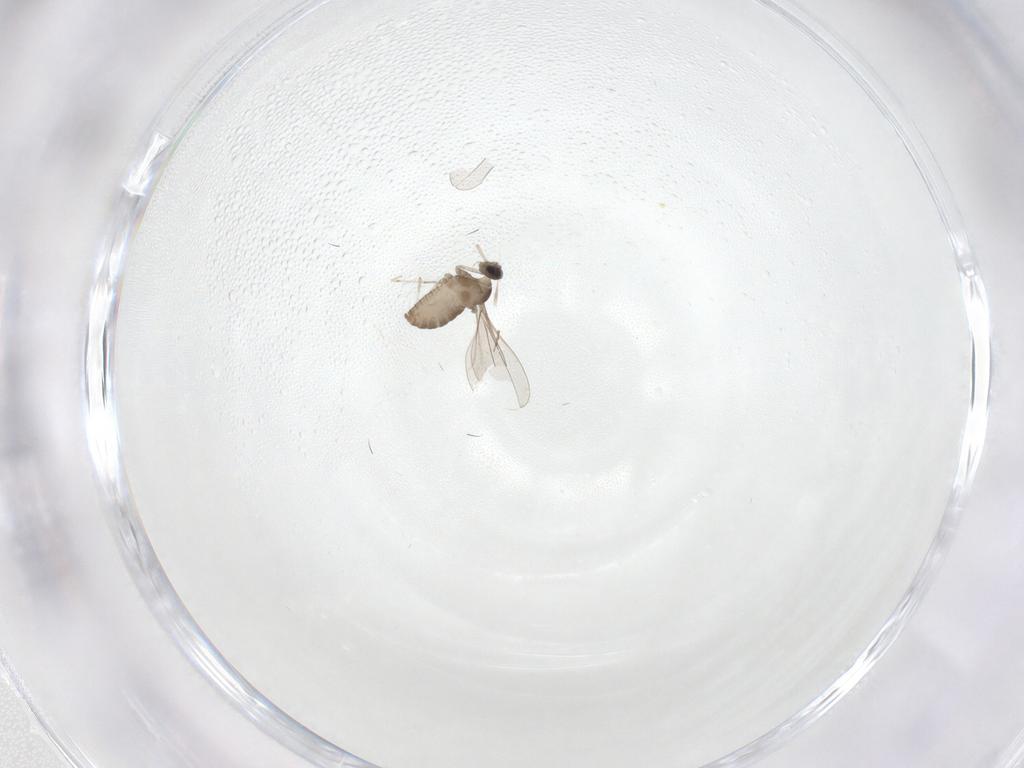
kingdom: Animalia
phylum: Arthropoda
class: Insecta
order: Diptera
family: Cecidomyiidae
